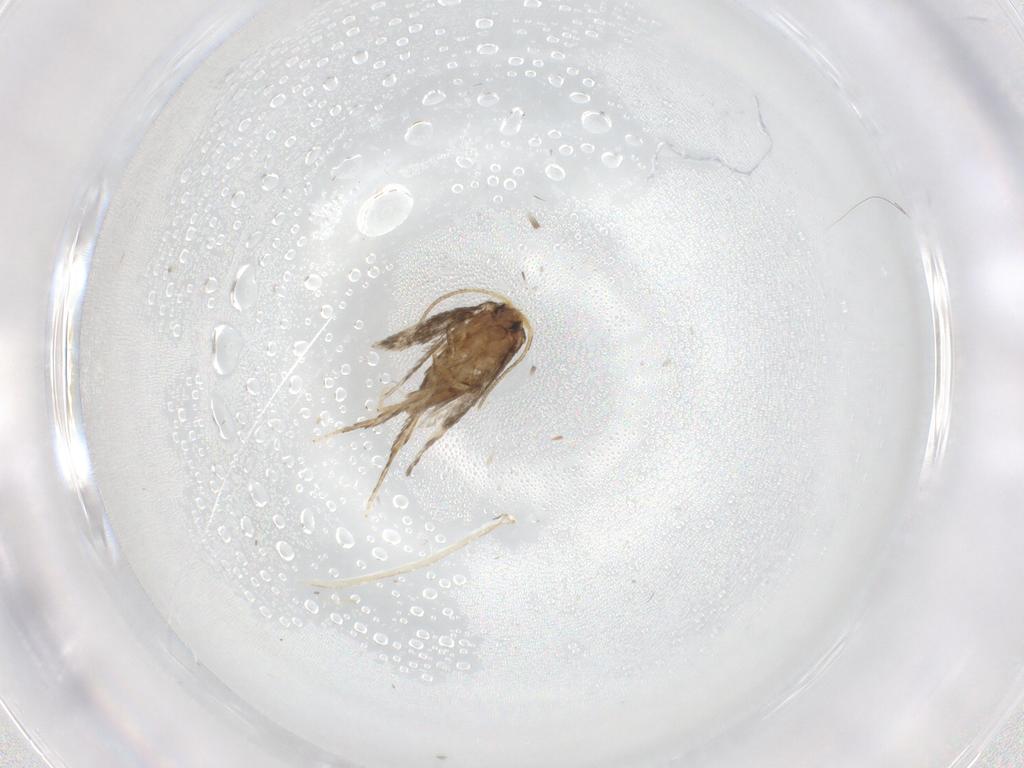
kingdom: Animalia
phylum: Arthropoda
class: Insecta
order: Lepidoptera
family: Nepticulidae
